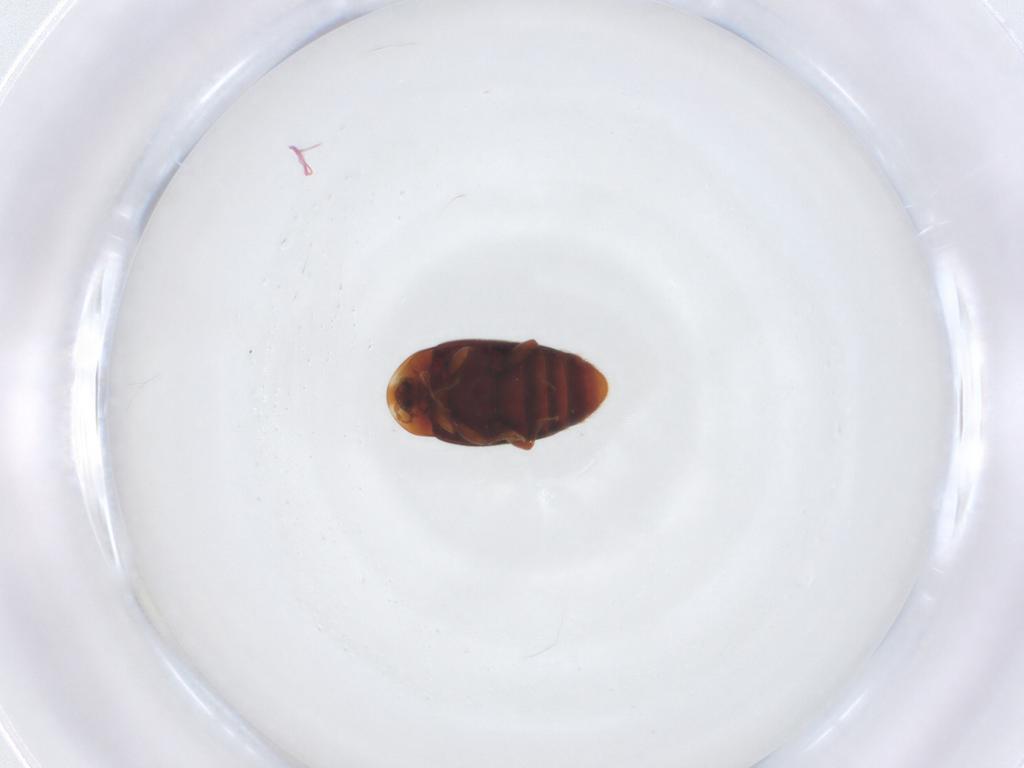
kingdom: Animalia
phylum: Arthropoda
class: Insecta
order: Coleoptera
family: Corylophidae
